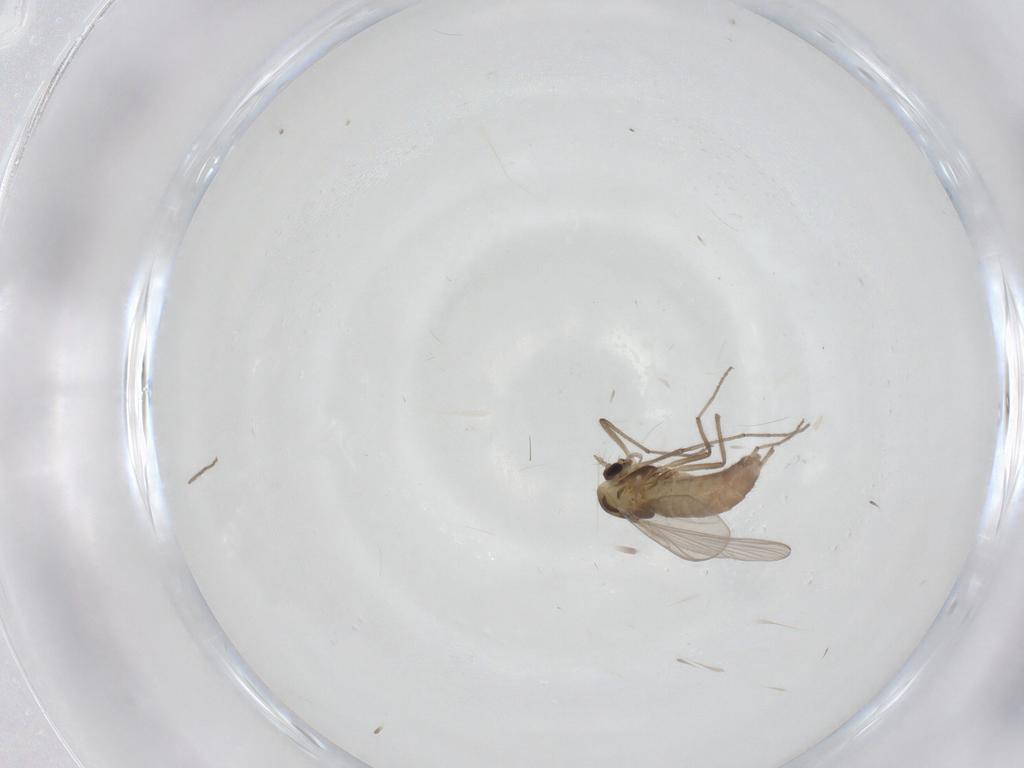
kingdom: Animalia
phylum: Arthropoda
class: Insecta
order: Diptera
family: Chironomidae
